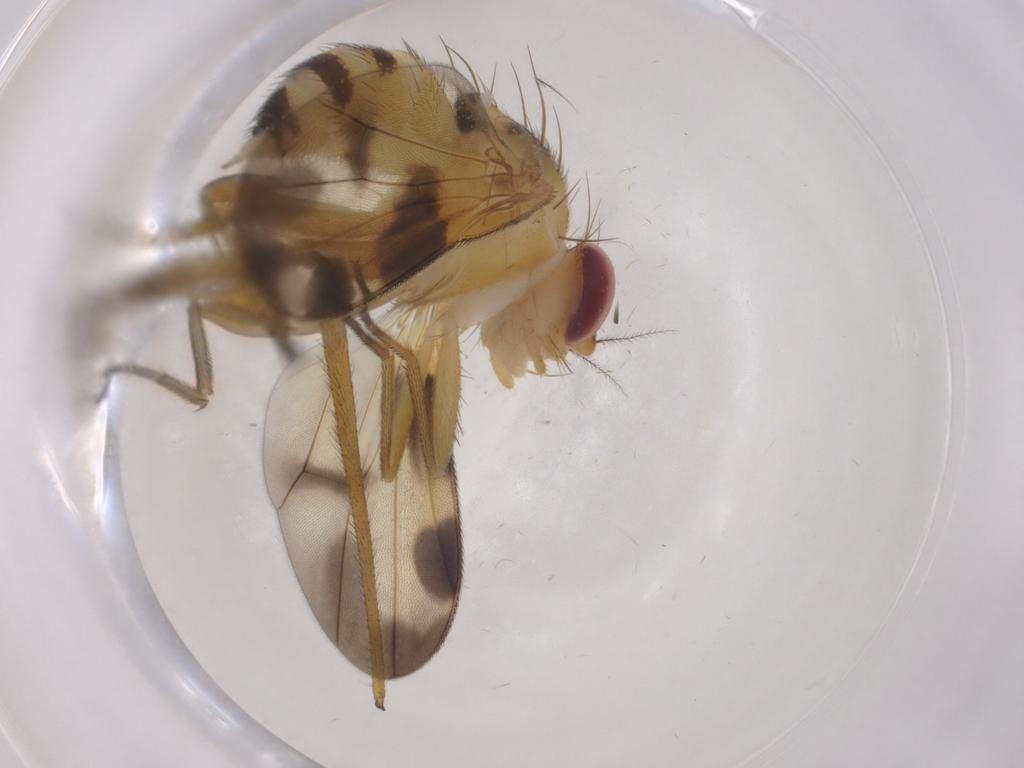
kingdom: Animalia
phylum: Arthropoda
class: Insecta
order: Diptera
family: Clusiidae
